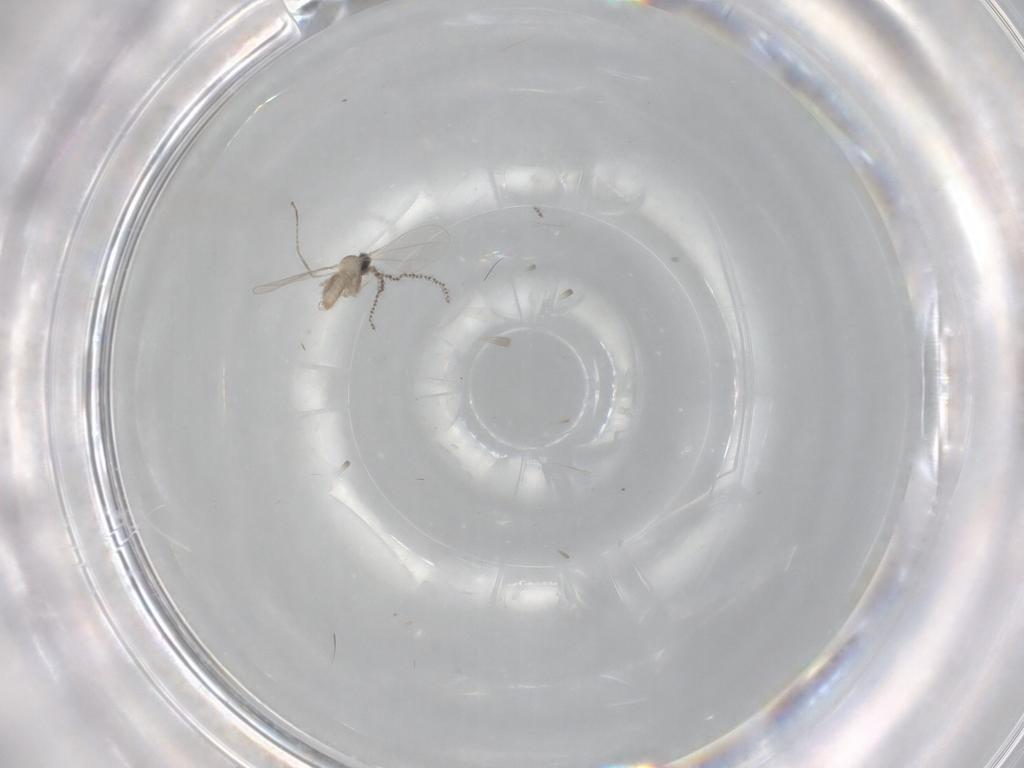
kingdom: Animalia
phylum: Arthropoda
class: Insecta
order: Diptera
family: Cecidomyiidae
